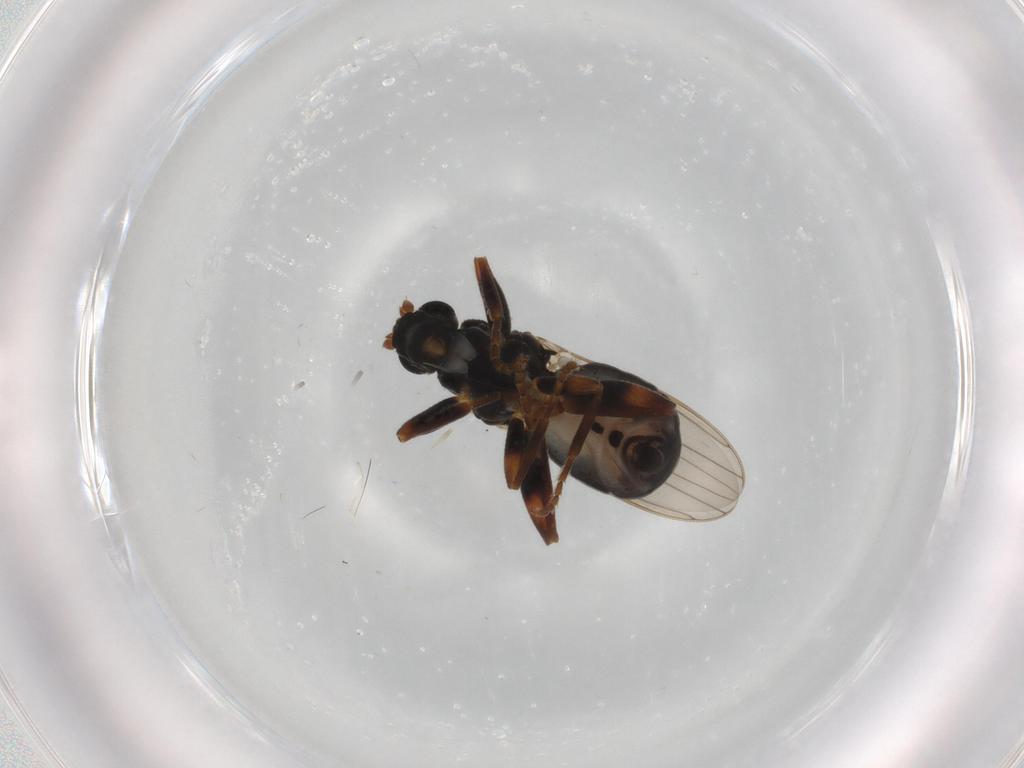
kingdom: Animalia
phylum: Arthropoda
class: Insecta
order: Diptera
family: Sphaeroceridae
